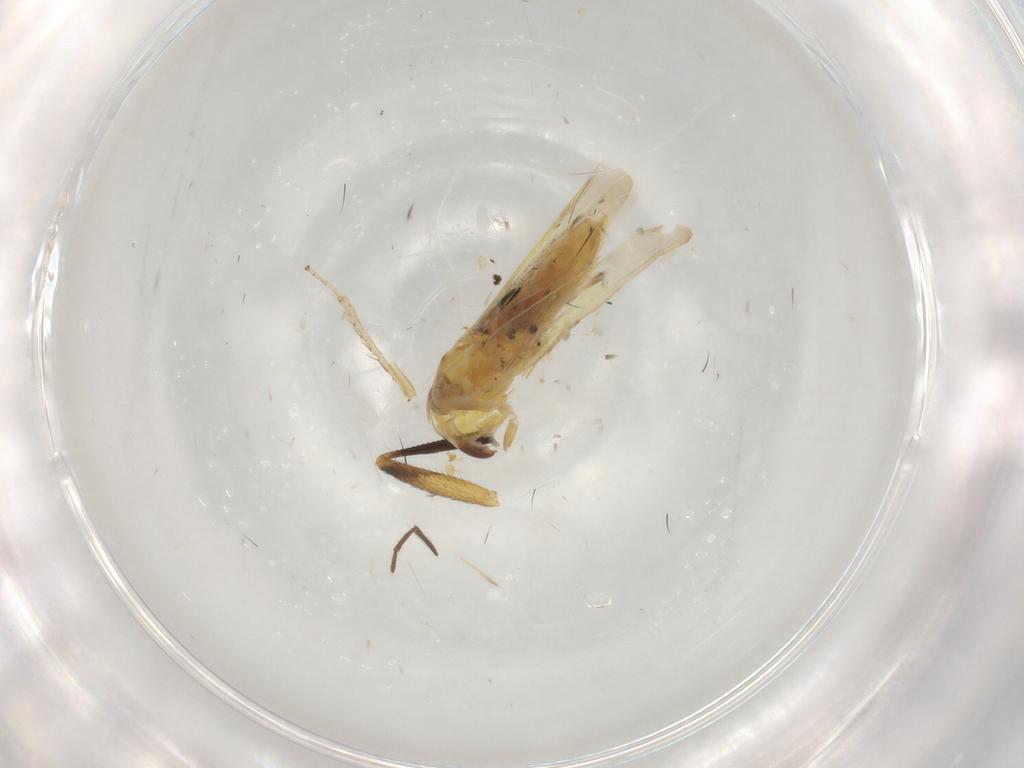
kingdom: Animalia
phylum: Arthropoda
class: Insecta
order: Hemiptera
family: Cicadellidae
